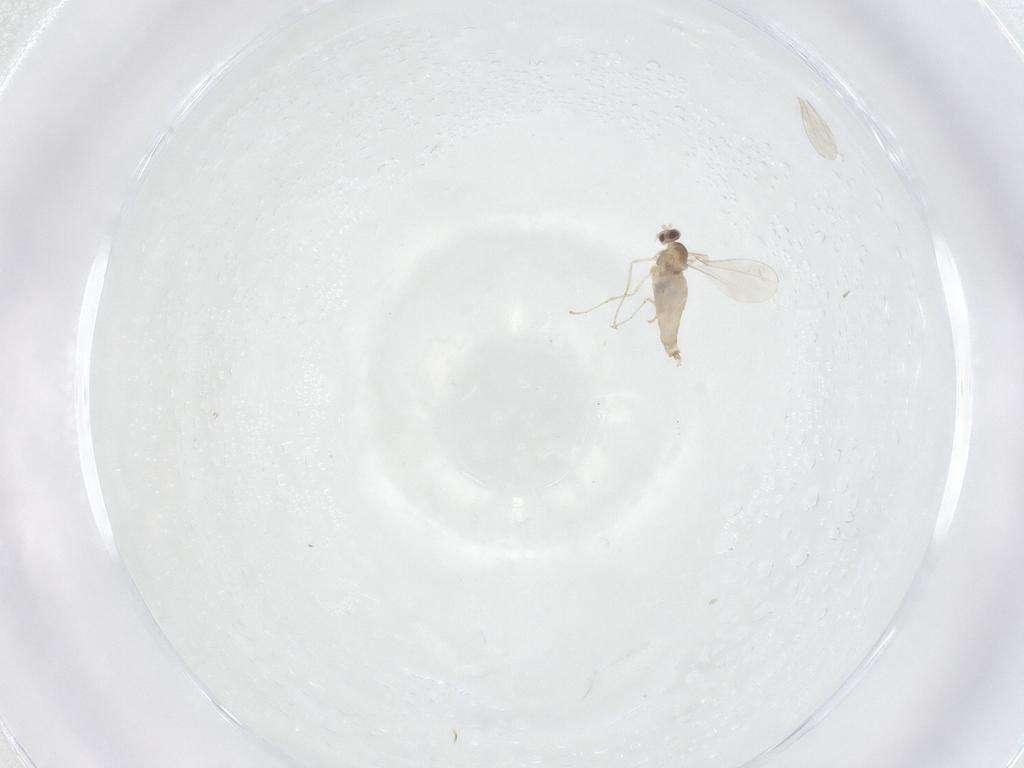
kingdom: Animalia
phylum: Arthropoda
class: Insecta
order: Diptera
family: Cecidomyiidae
